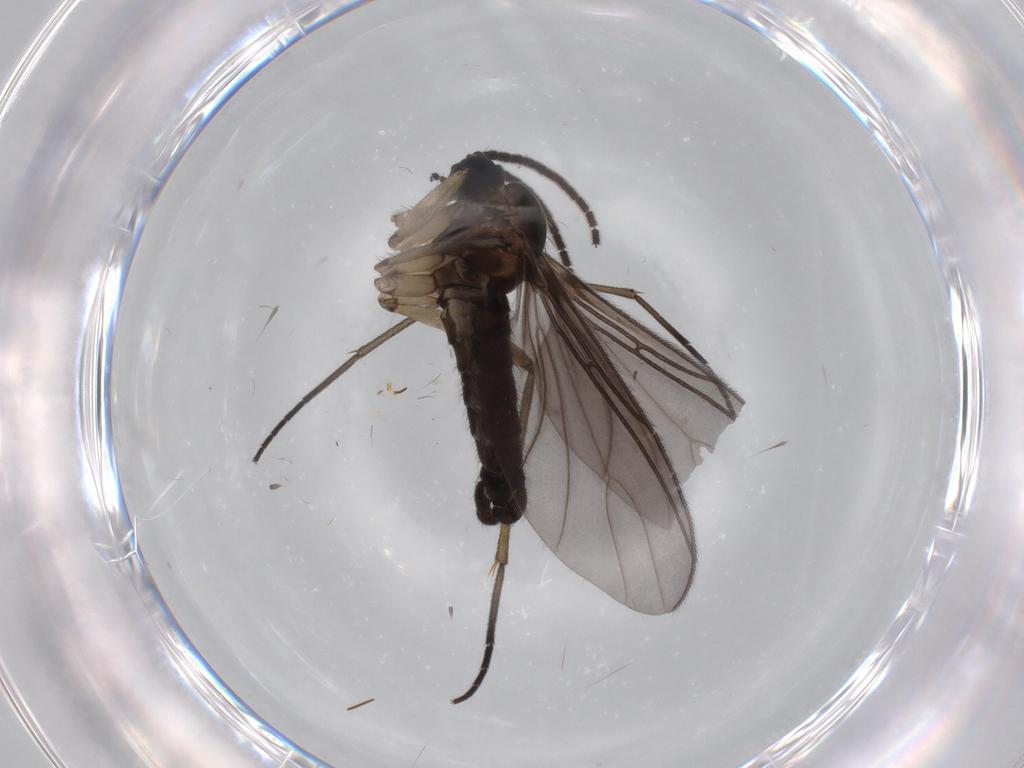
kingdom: Animalia
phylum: Arthropoda
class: Insecta
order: Diptera
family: Sciaridae
